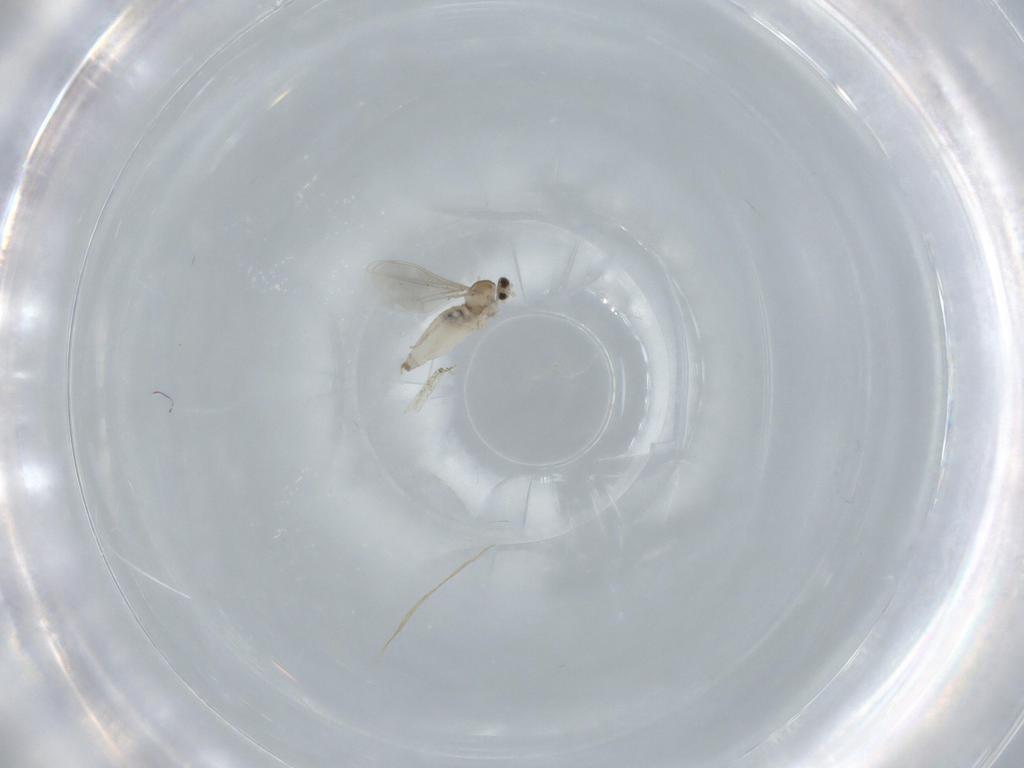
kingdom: Animalia
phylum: Arthropoda
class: Insecta
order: Diptera
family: Cecidomyiidae
